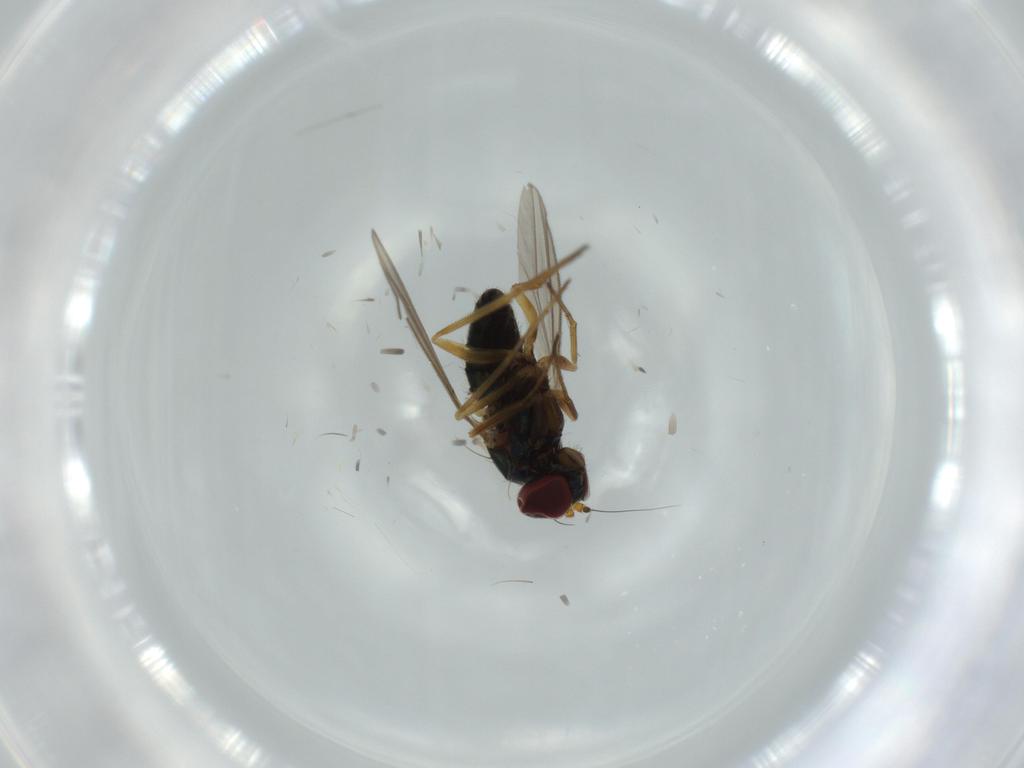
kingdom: Animalia
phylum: Arthropoda
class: Insecta
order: Diptera
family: Dolichopodidae
